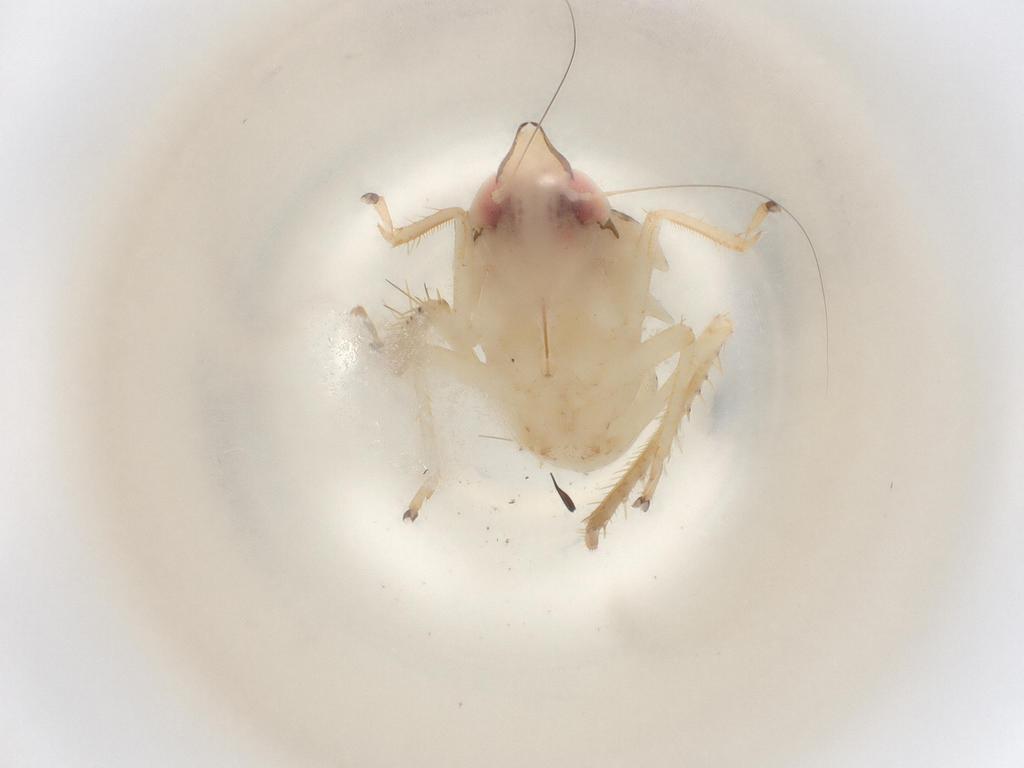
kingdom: Animalia
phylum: Arthropoda
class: Insecta
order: Hemiptera
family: Cicadellidae
